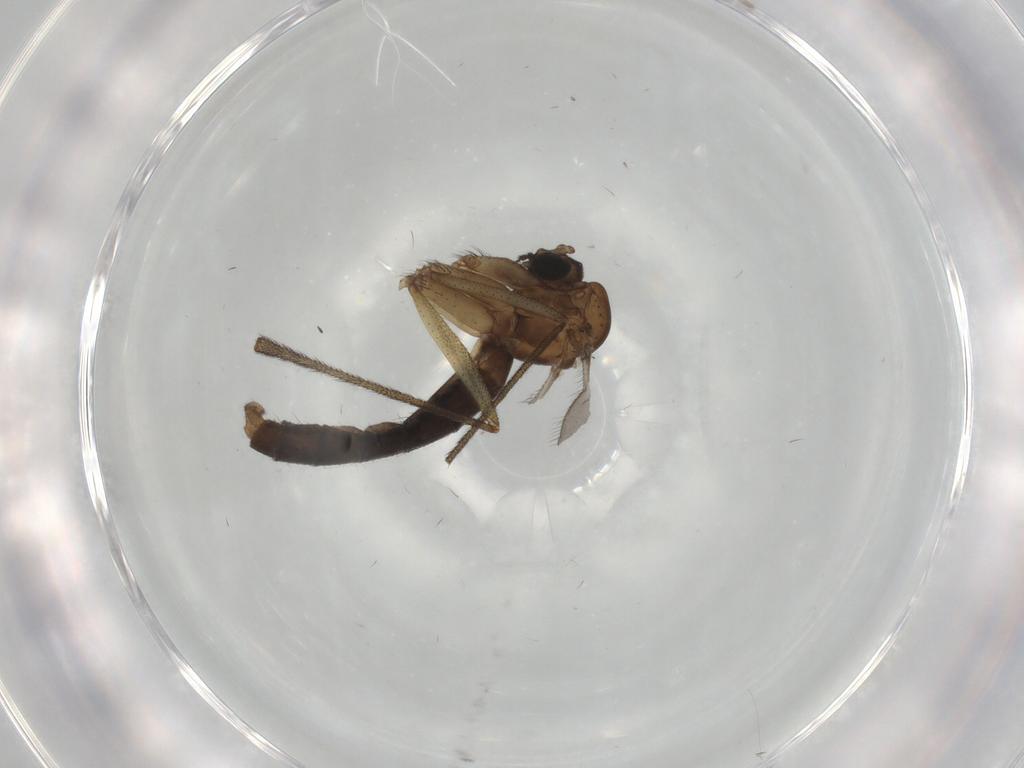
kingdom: Animalia
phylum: Arthropoda
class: Insecta
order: Diptera
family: Ditomyiidae
